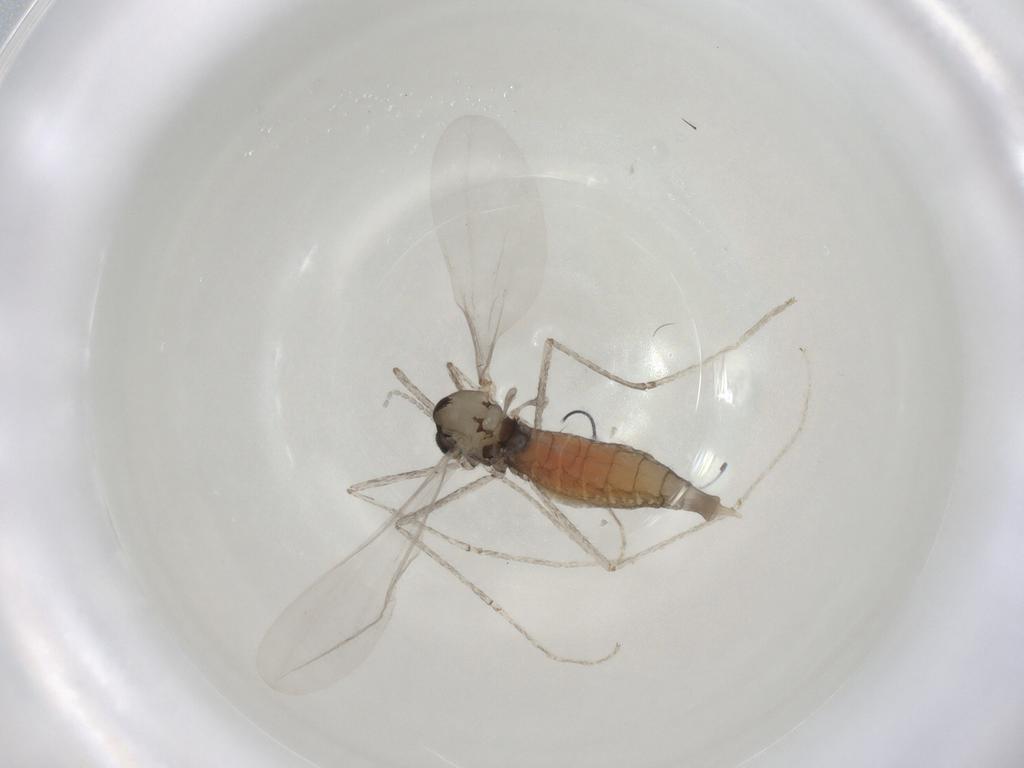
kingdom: Animalia
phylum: Arthropoda
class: Insecta
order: Diptera
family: Cecidomyiidae
